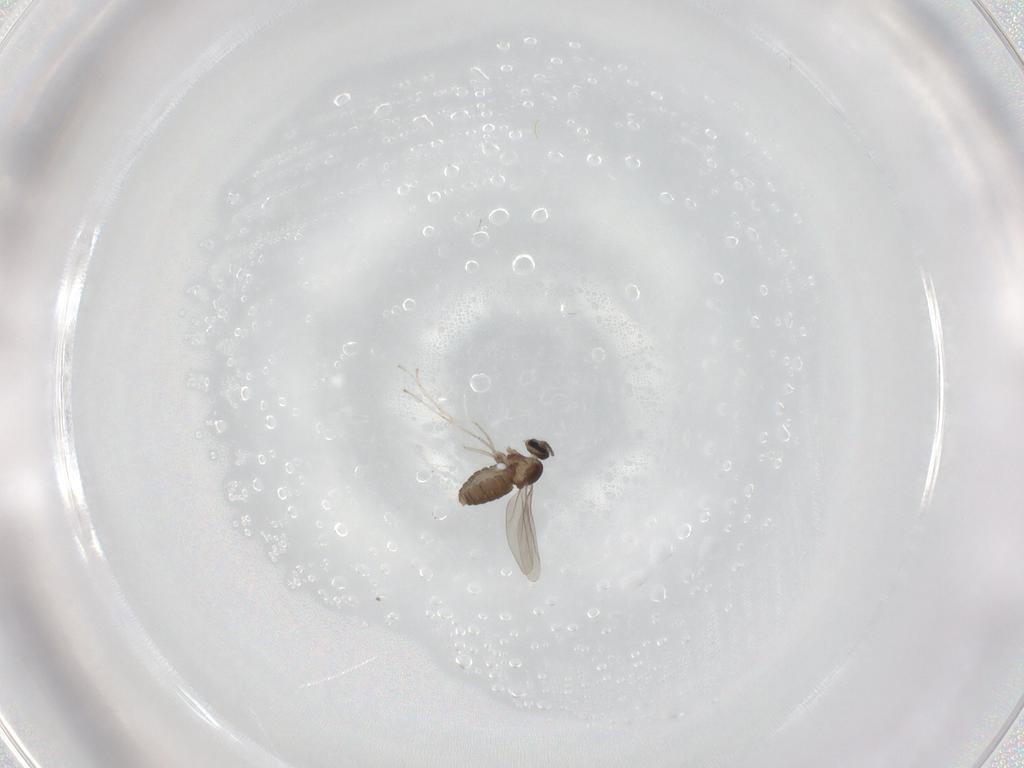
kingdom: Animalia
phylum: Arthropoda
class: Insecta
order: Diptera
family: Cecidomyiidae
